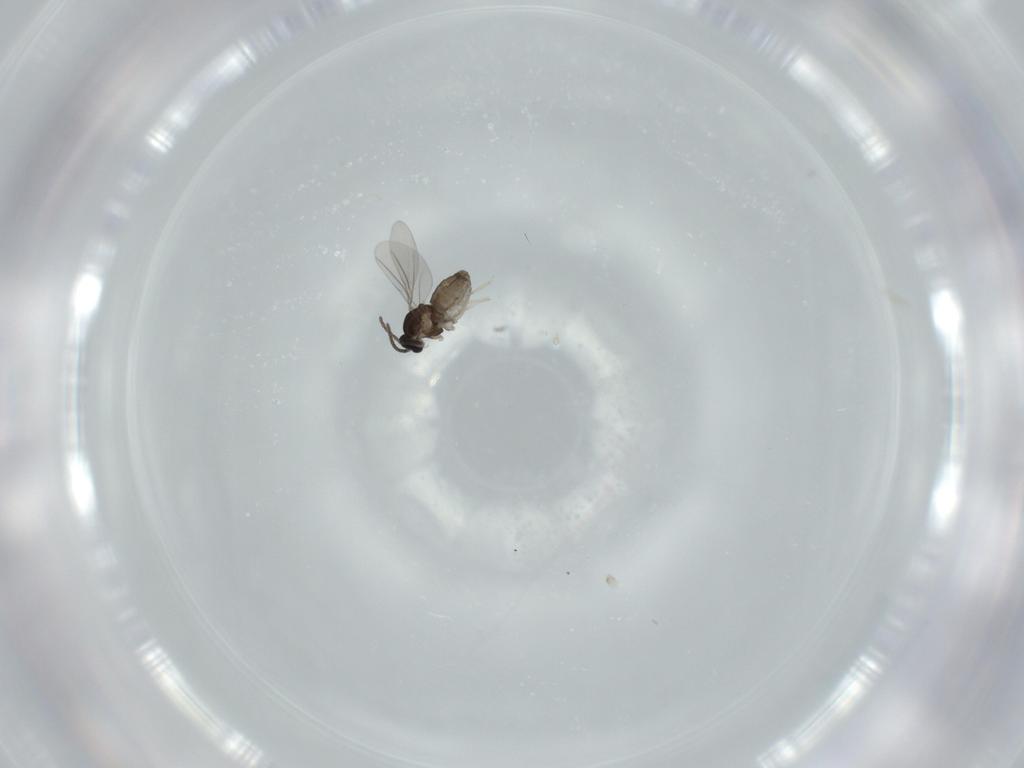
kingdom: Animalia
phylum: Arthropoda
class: Insecta
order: Diptera
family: Cecidomyiidae
